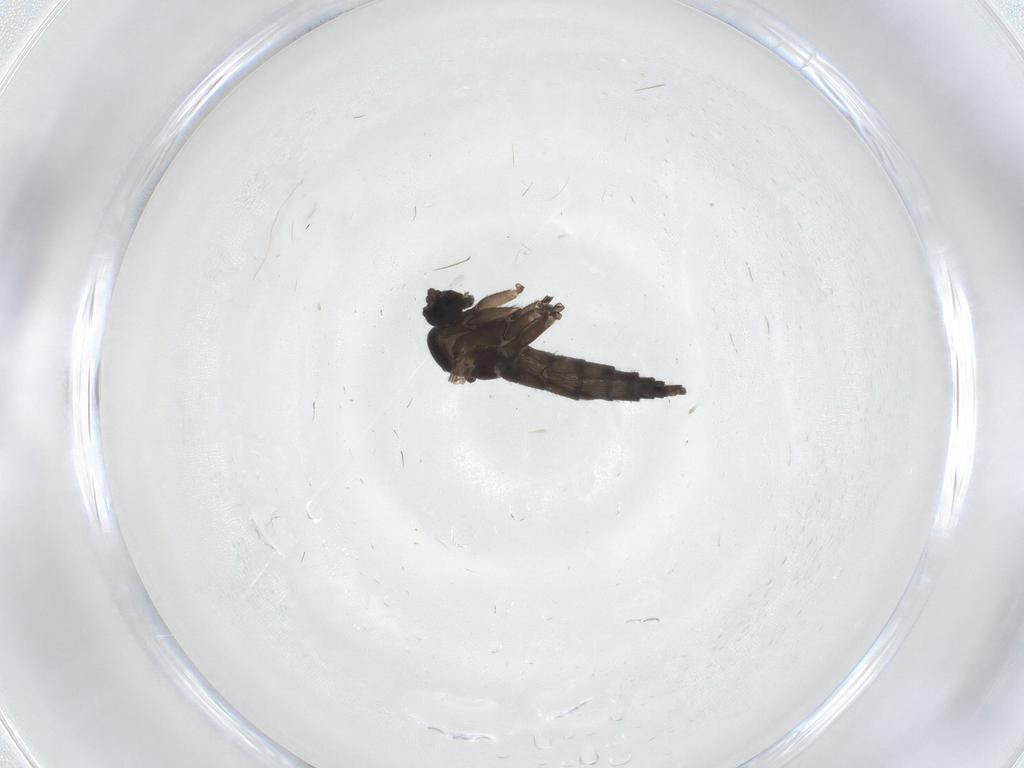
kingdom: Animalia
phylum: Arthropoda
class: Insecta
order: Diptera
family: Sciaridae
